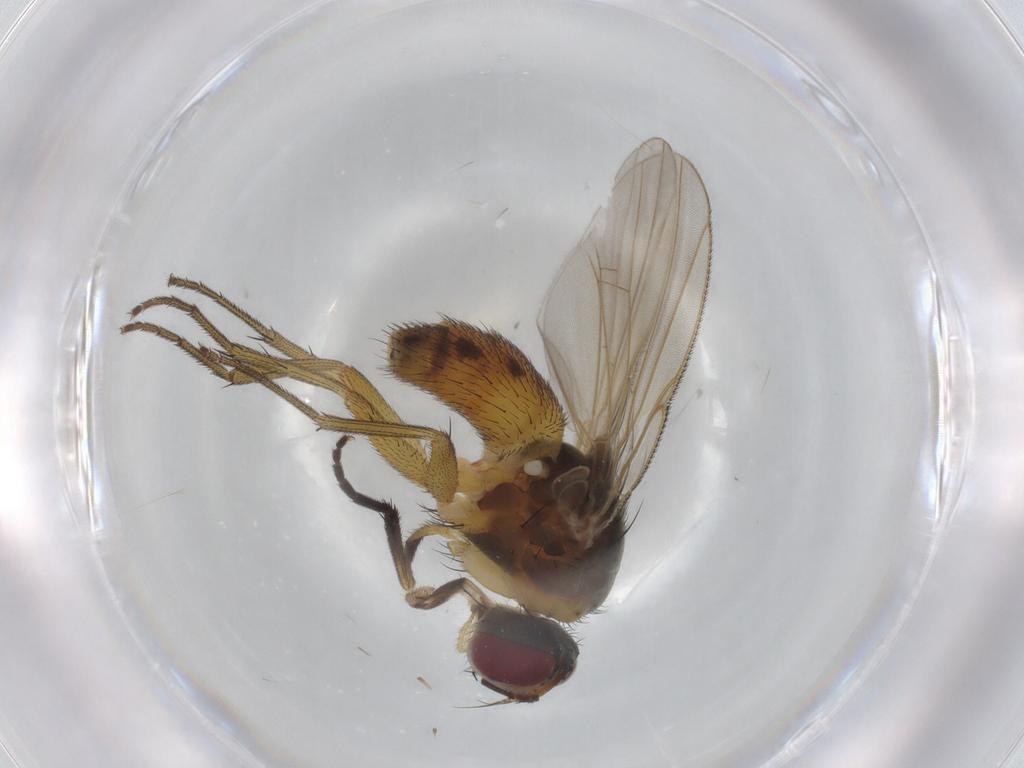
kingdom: Animalia
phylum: Arthropoda
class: Insecta
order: Diptera
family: Muscidae
